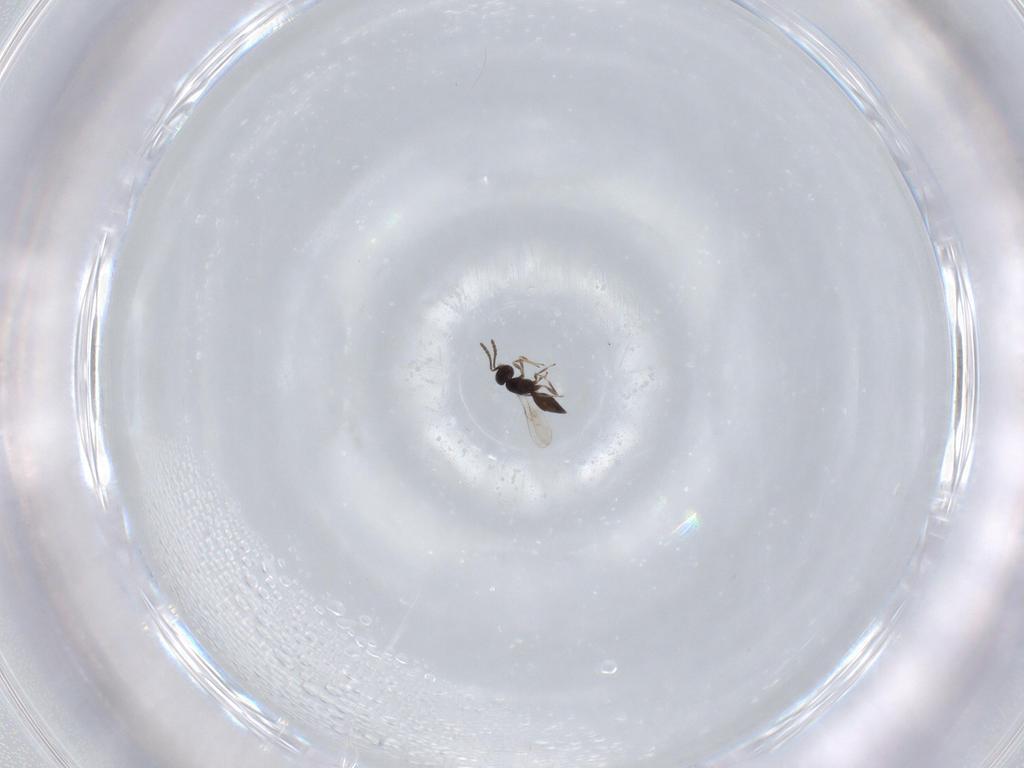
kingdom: Animalia
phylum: Arthropoda
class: Insecta
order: Hymenoptera
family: Scelionidae
